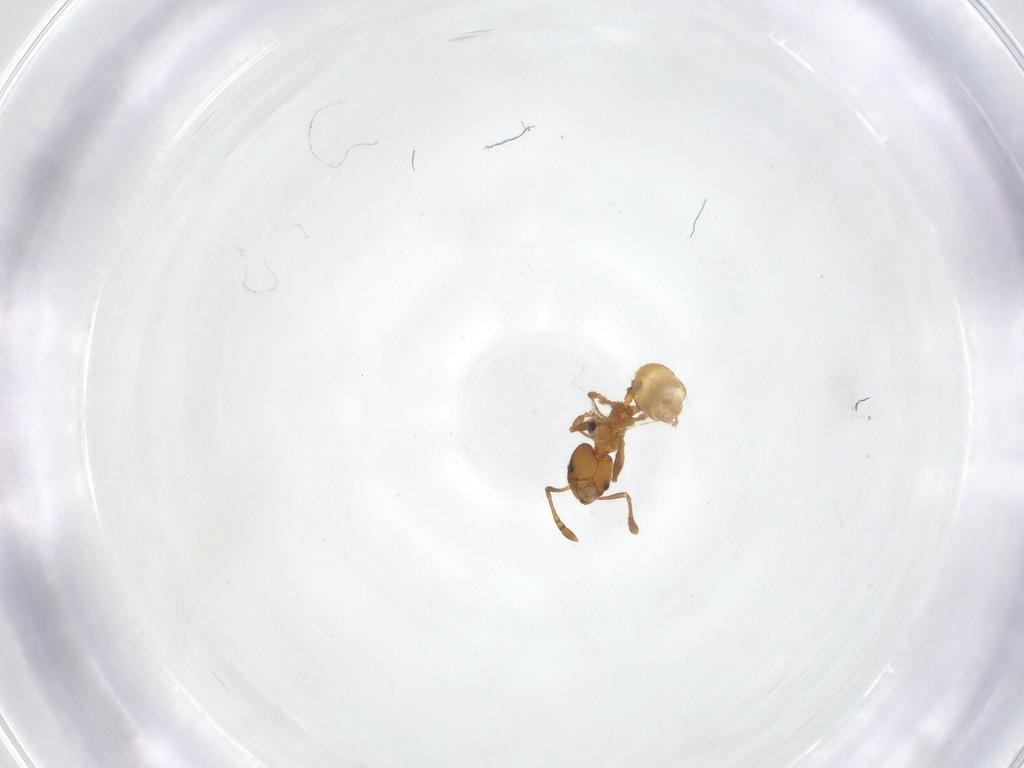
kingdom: Animalia
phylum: Arthropoda
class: Insecta
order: Hymenoptera
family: Formicidae
